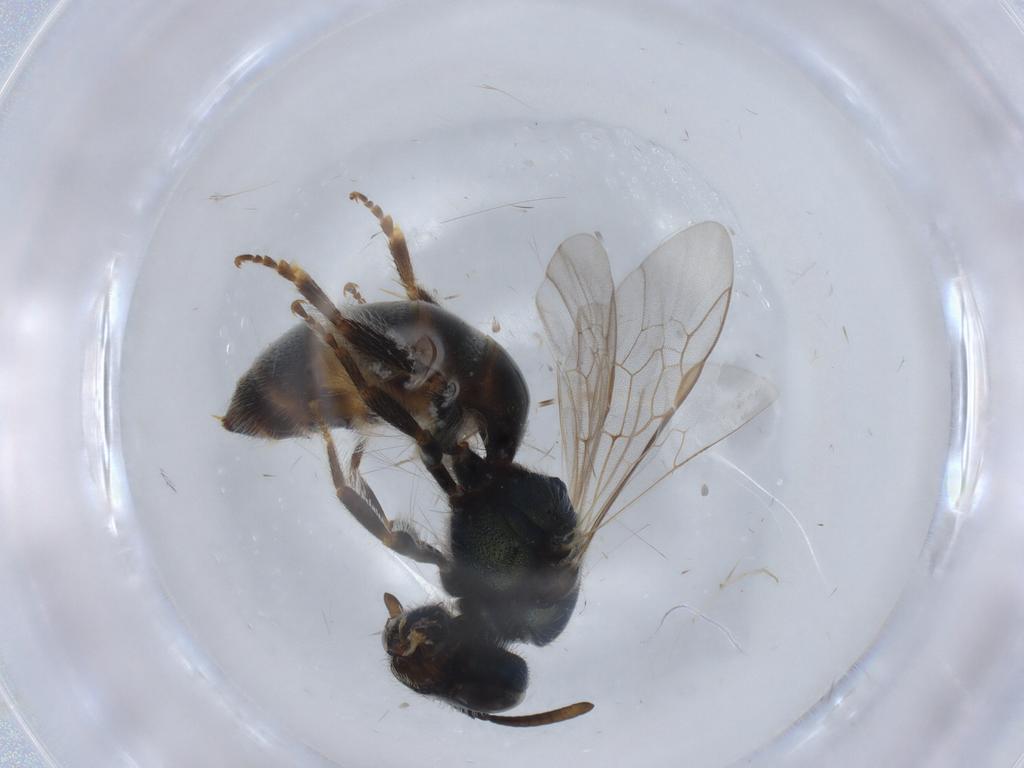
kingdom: Animalia
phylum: Arthropoda
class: Insecta
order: Hymenoptera
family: Halictidae
